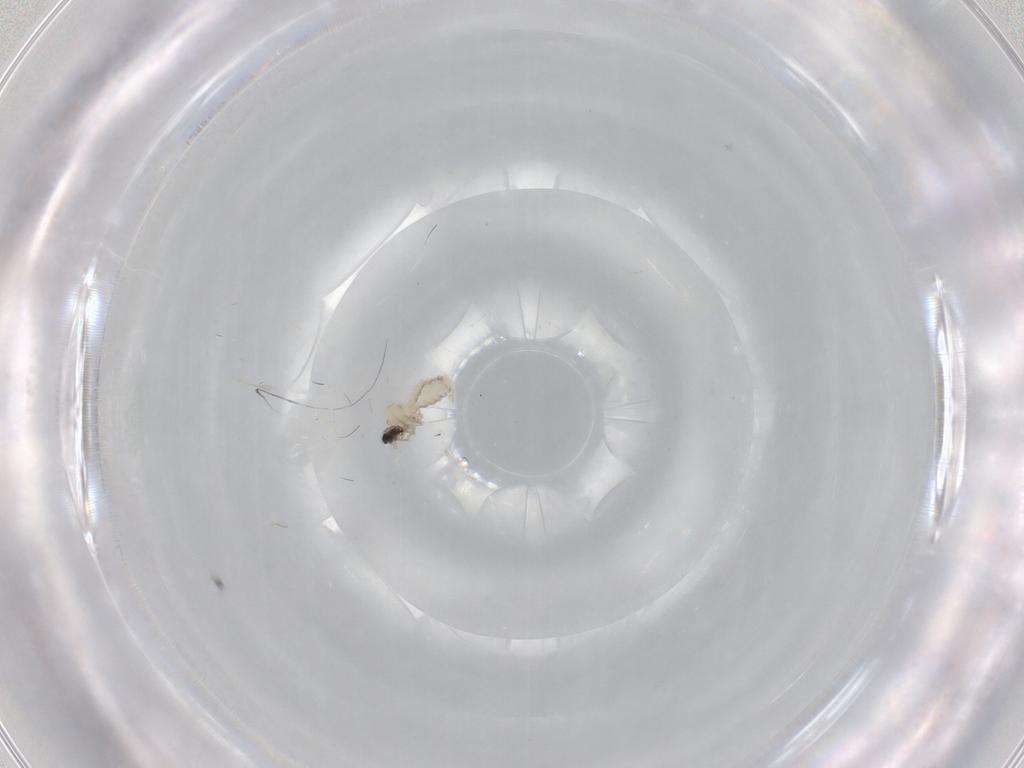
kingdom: Animalia
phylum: Arthropoda
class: Insecta
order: Diptera
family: Cecidomyiidae
